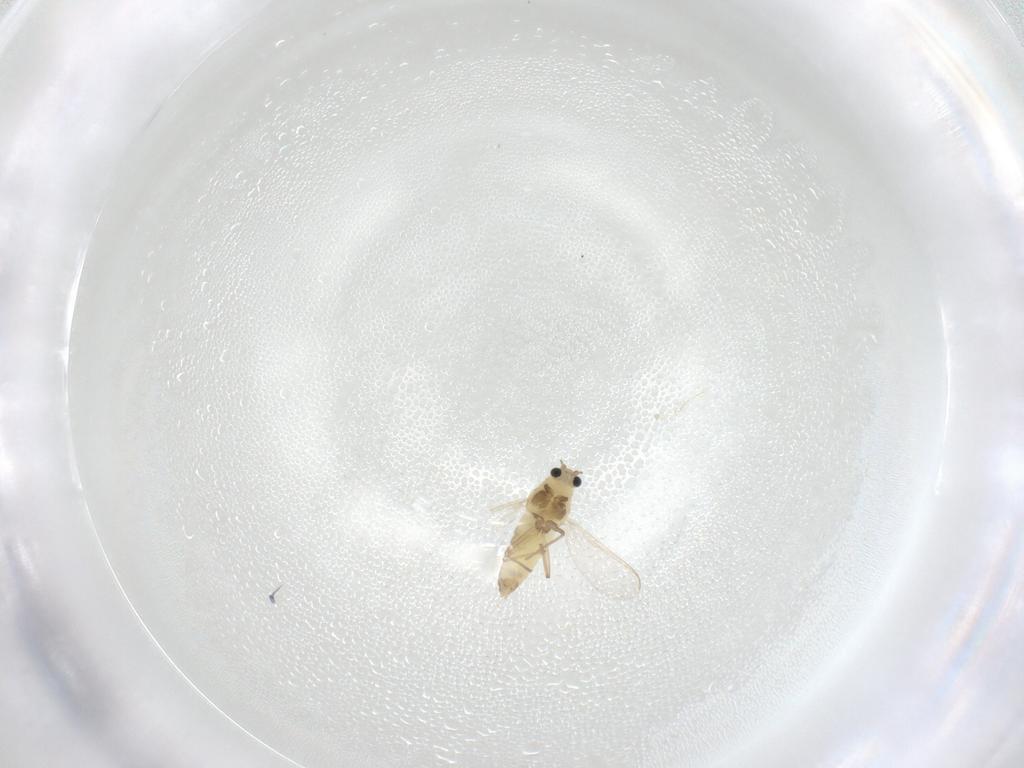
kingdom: Animalia
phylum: Arthropoda
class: Insecta
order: Diptera
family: Chironomidae
